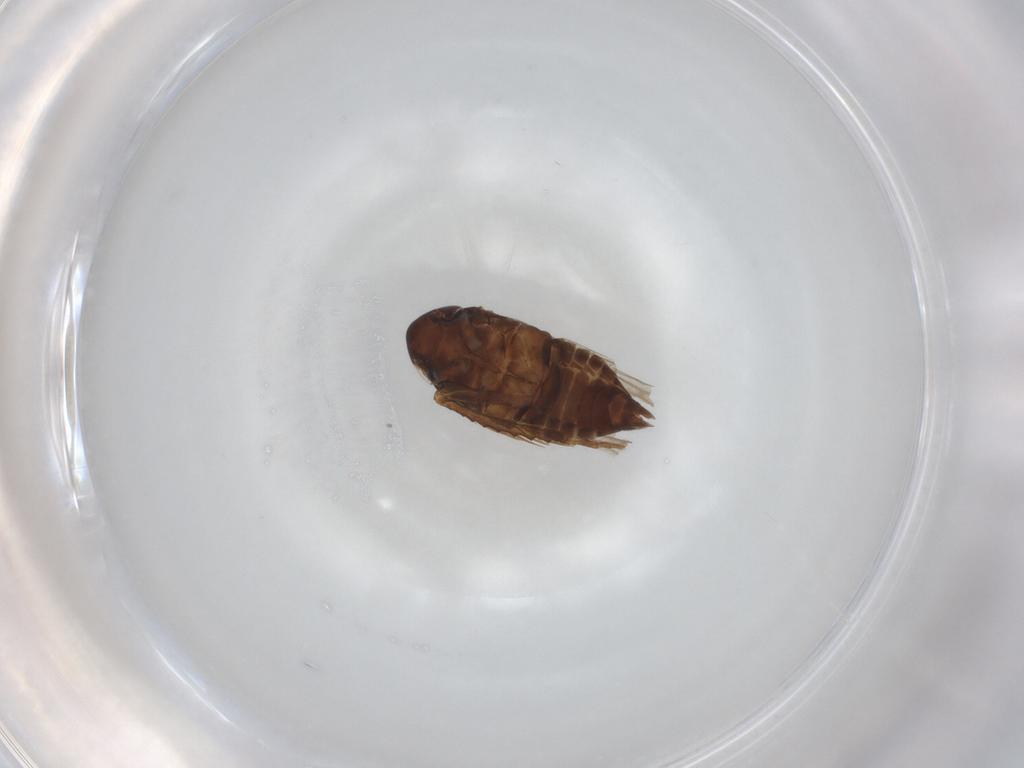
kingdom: Animalia
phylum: Arthropoda
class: Insecta
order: Hemiptera
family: Cicadellidae
